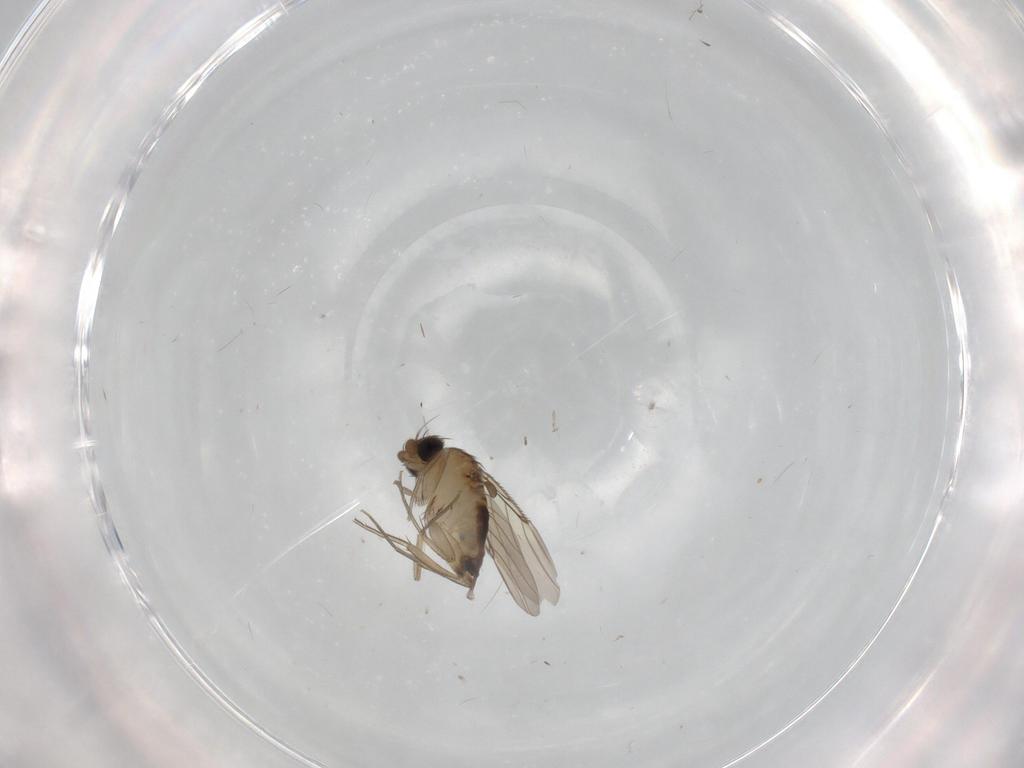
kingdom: Animalia
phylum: Arthropoda
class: Insecta
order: Diptera
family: Phoridae
